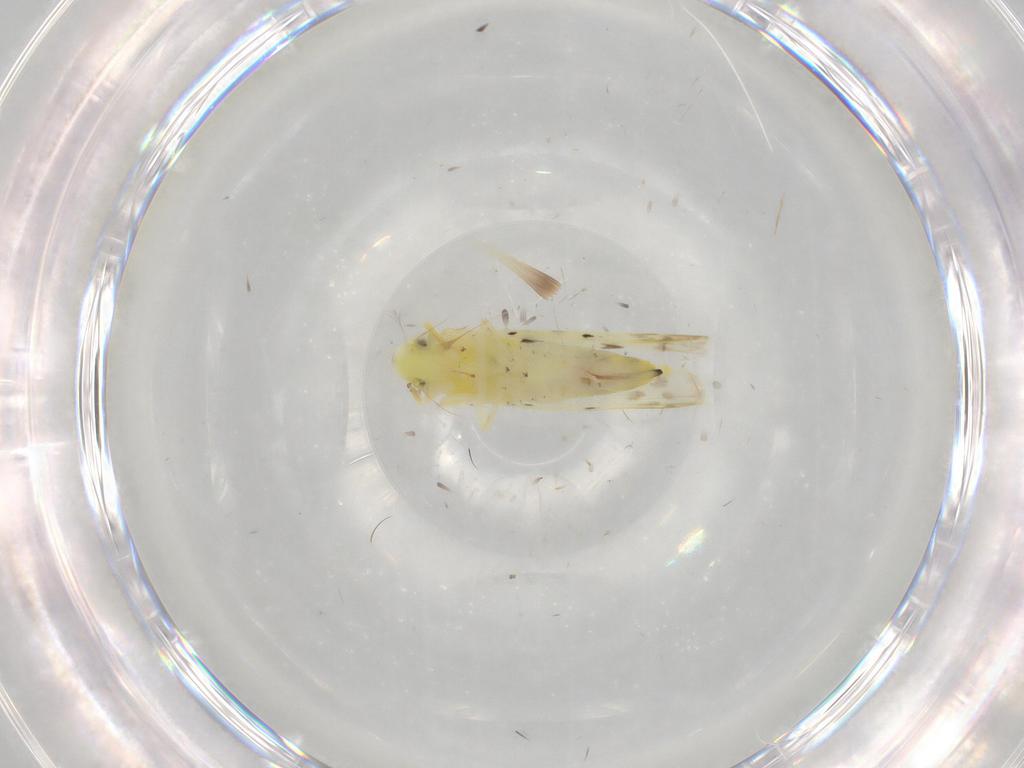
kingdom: Animalia
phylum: Arthropoda
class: Insecta
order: Hemiptera
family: Cicadellidae
